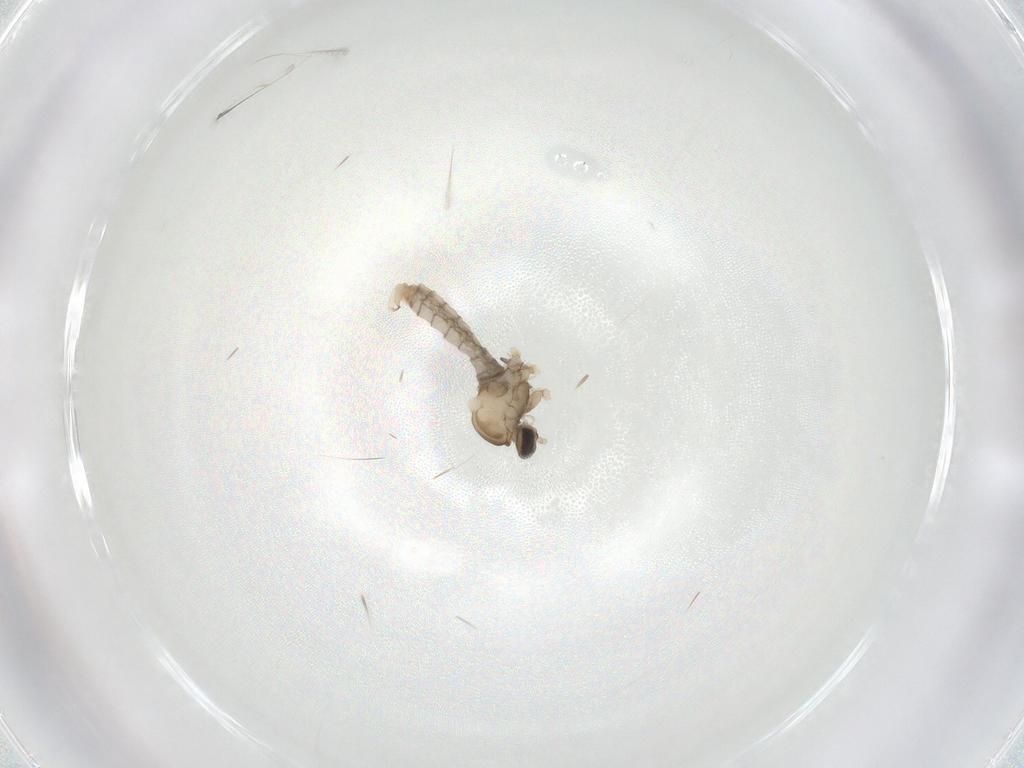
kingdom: Animalia
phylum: Arthropoda
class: Insecta
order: Diptera
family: Cecidomyiidae
